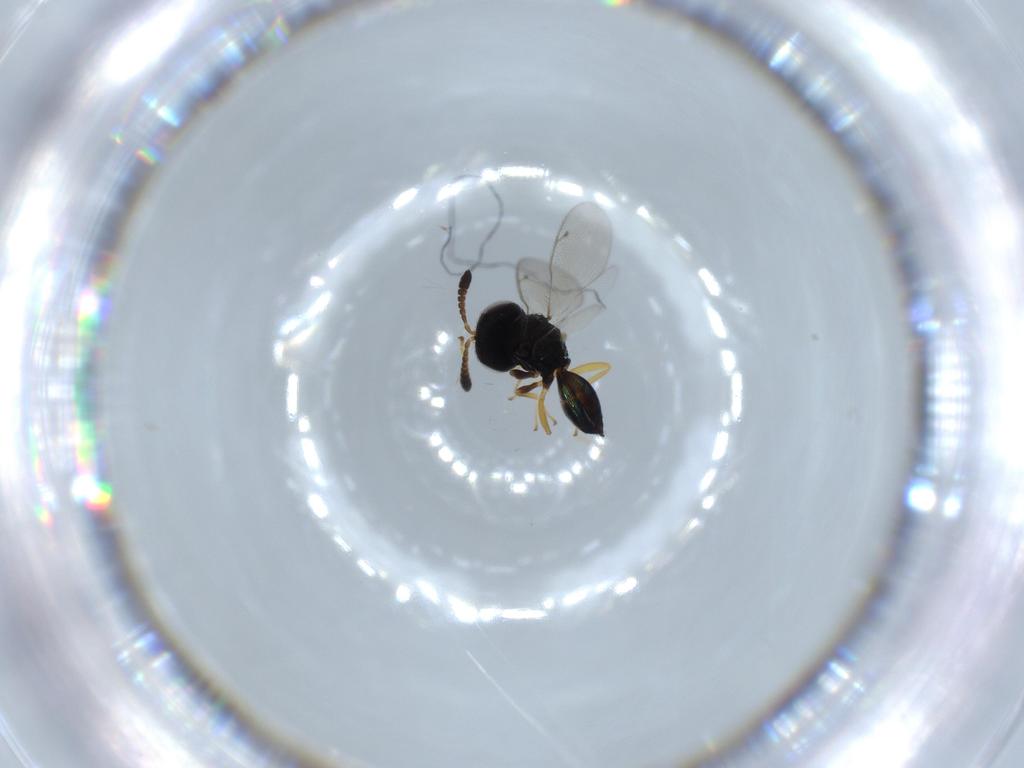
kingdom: Animalia
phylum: Arthropoda
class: Insecta
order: Hymenoptera
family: Pteromalidae
